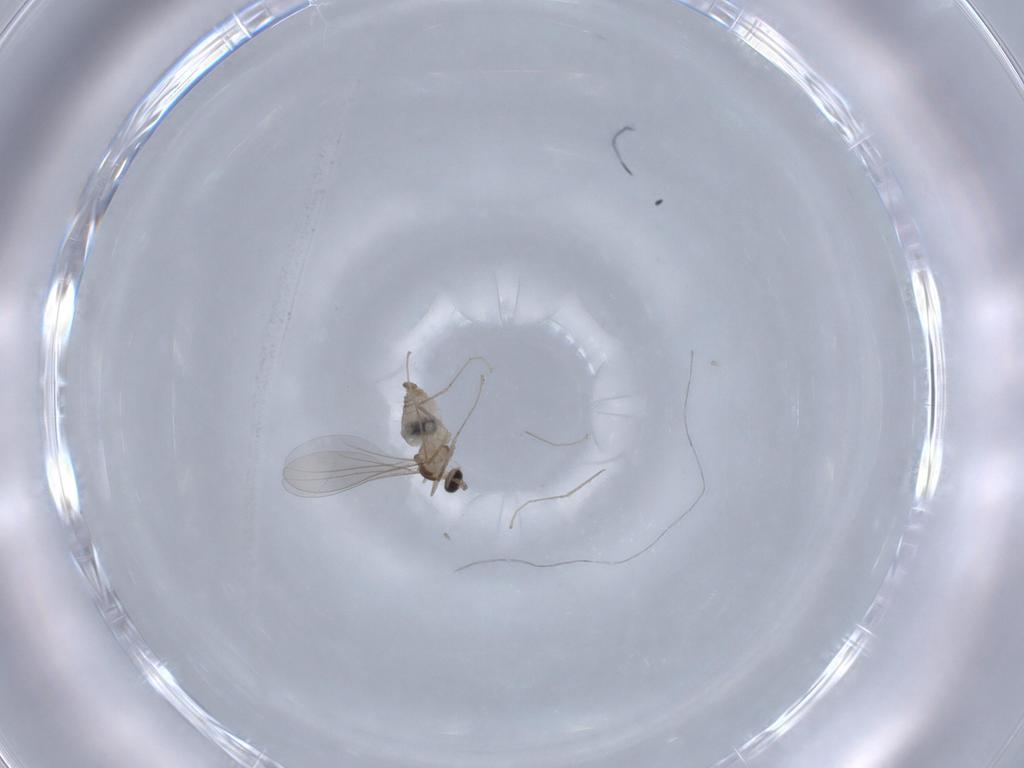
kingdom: Animalia
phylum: Arthropoda
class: Insecta
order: Diptera
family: Cecidomyiidae
